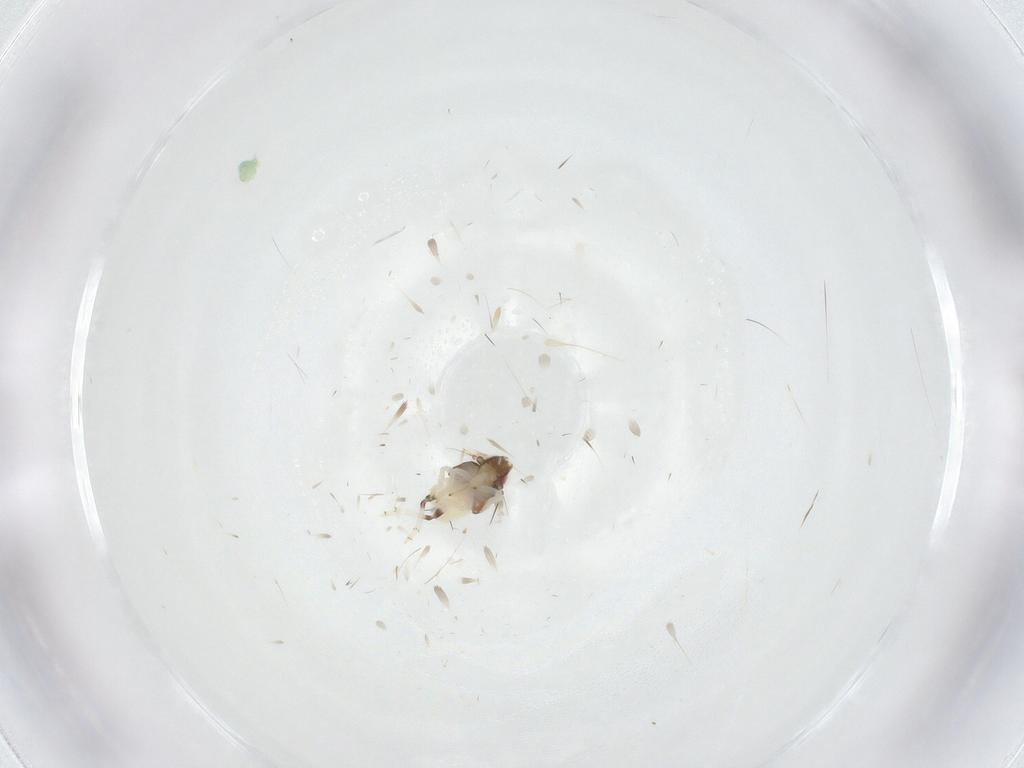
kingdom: Animalia
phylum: Arthropoda
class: Insecta
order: Hemiptera
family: Nogodinidae
